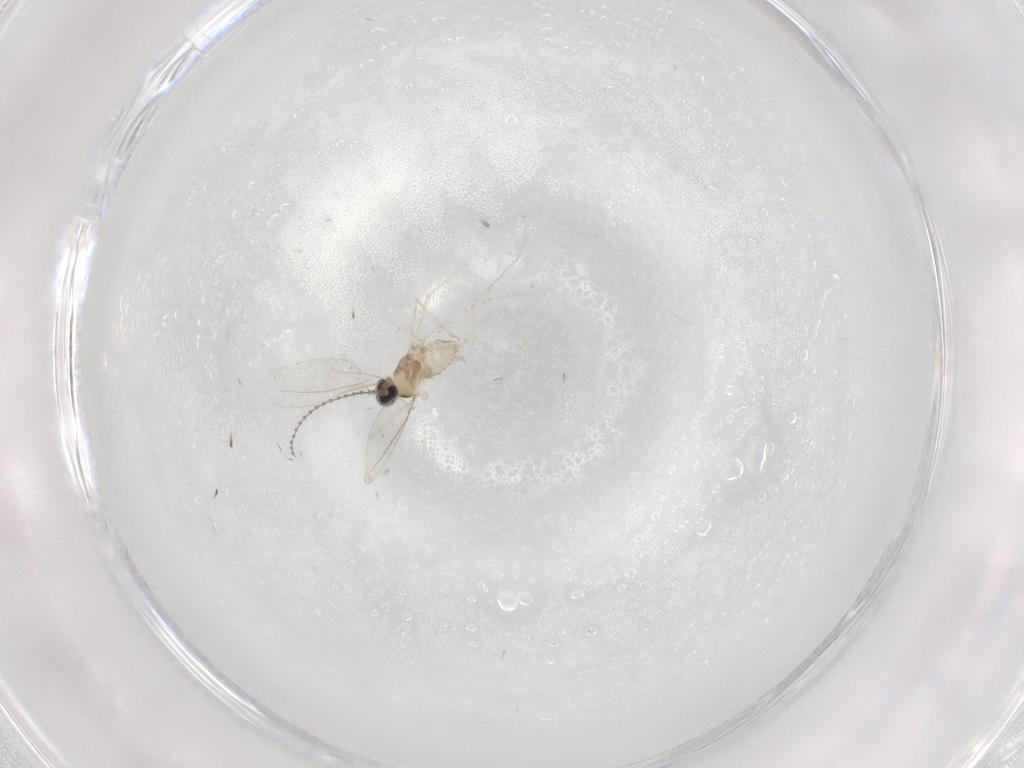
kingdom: Animalia
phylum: Arthropoda
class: Insecta
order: Diptera
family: Cecidomyiidae
